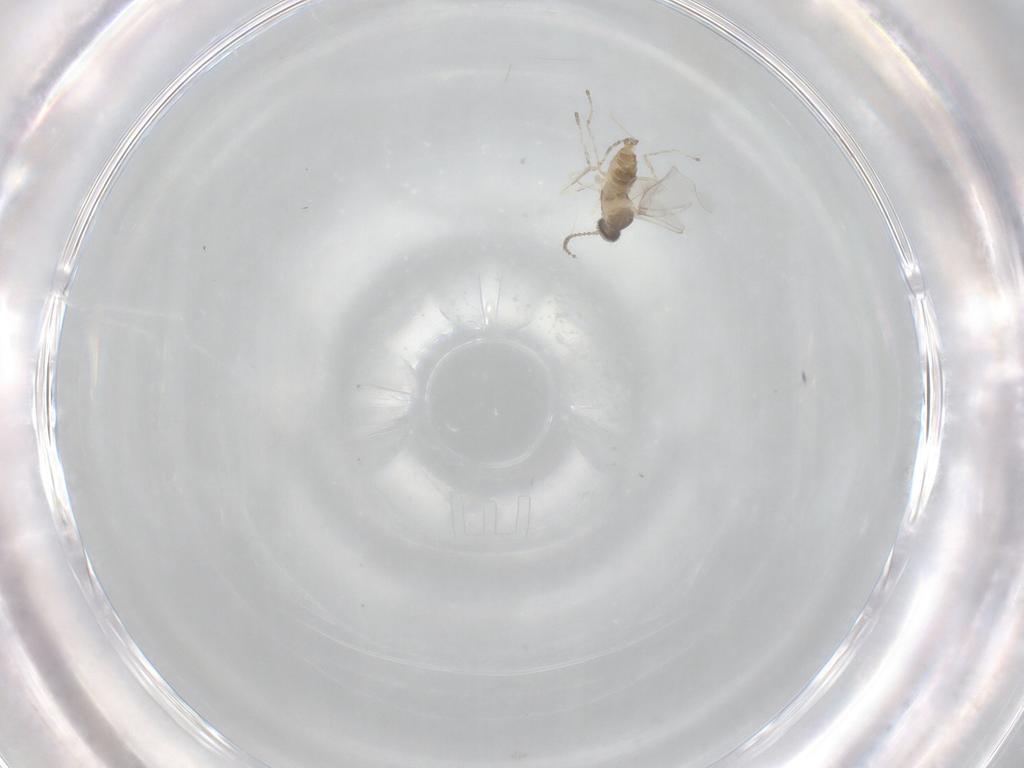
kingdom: Animalia
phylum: Arthropoda
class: Insecta
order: Diptera
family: Cecidomyiidae
